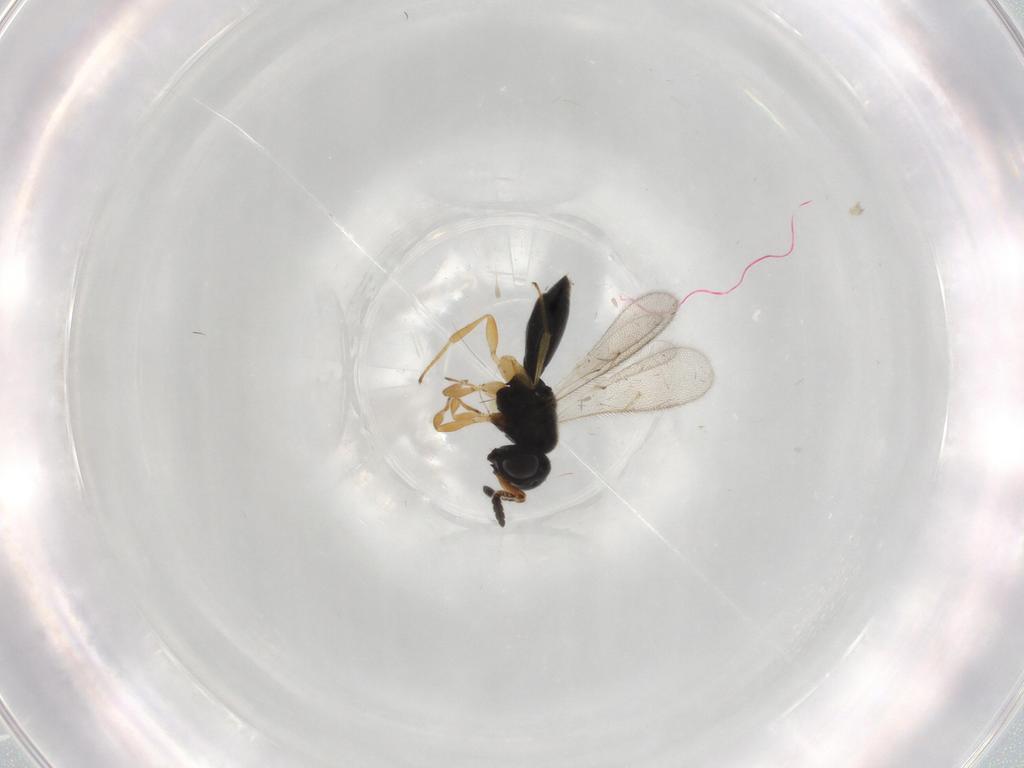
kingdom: Animalia
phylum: Arthropoda
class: Insecta
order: Hymenoptera
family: Scelionidae
